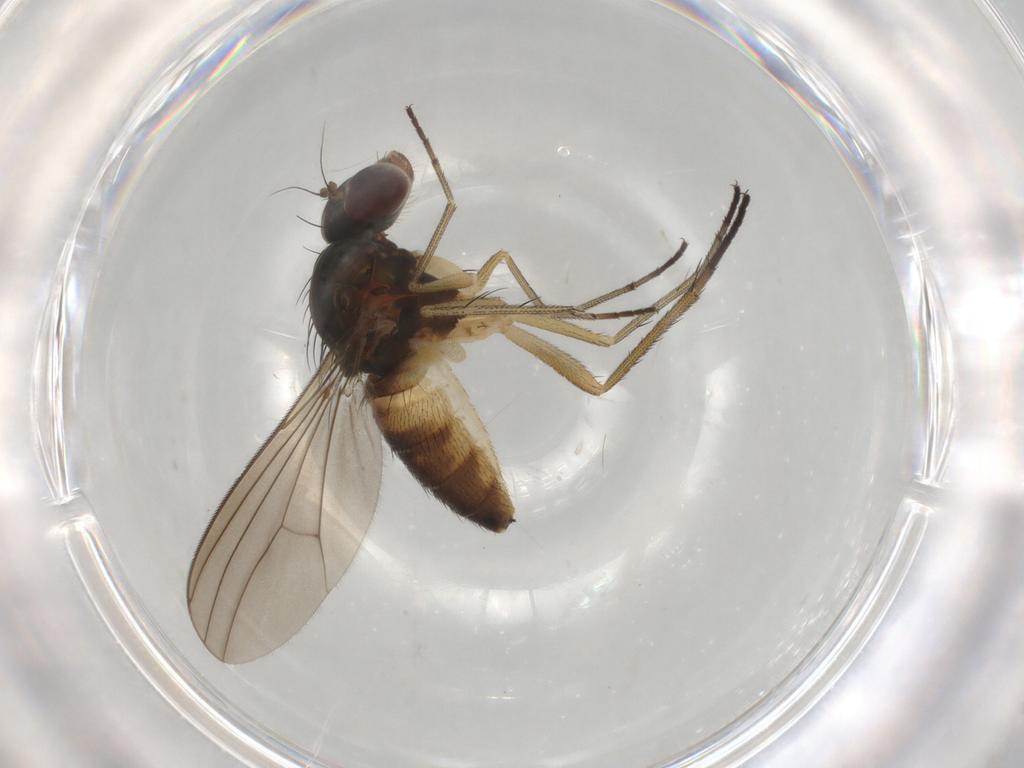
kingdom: Animalia
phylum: Arthropoda
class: Insecta
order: Diptera
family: Dolichopodidae
